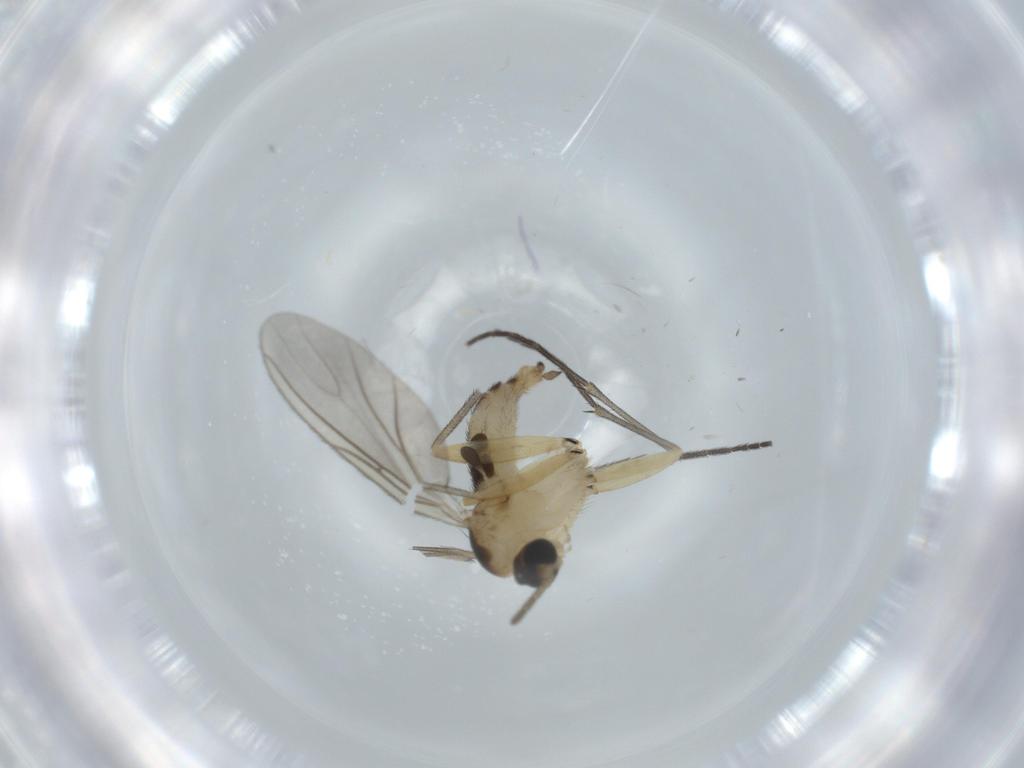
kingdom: Animalia
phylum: Arthropoda
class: Insecta
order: Diptera
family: Sciaridae
